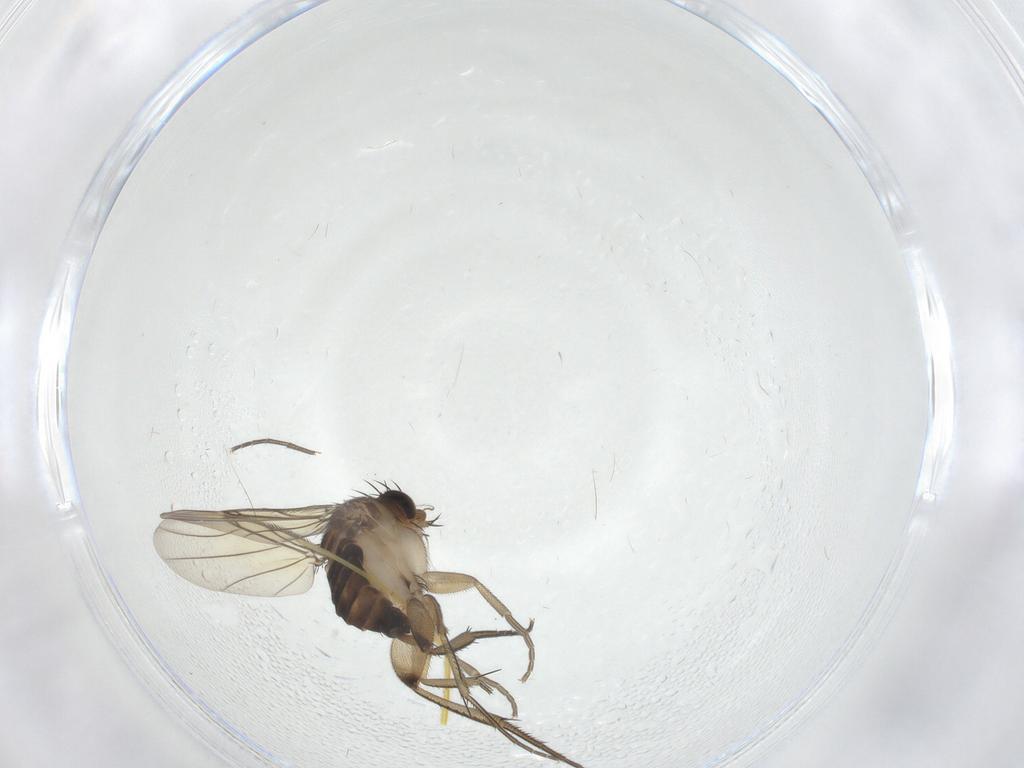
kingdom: Animalia
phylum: Arthropoda
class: Insecta
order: Diptera
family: Phoridae
